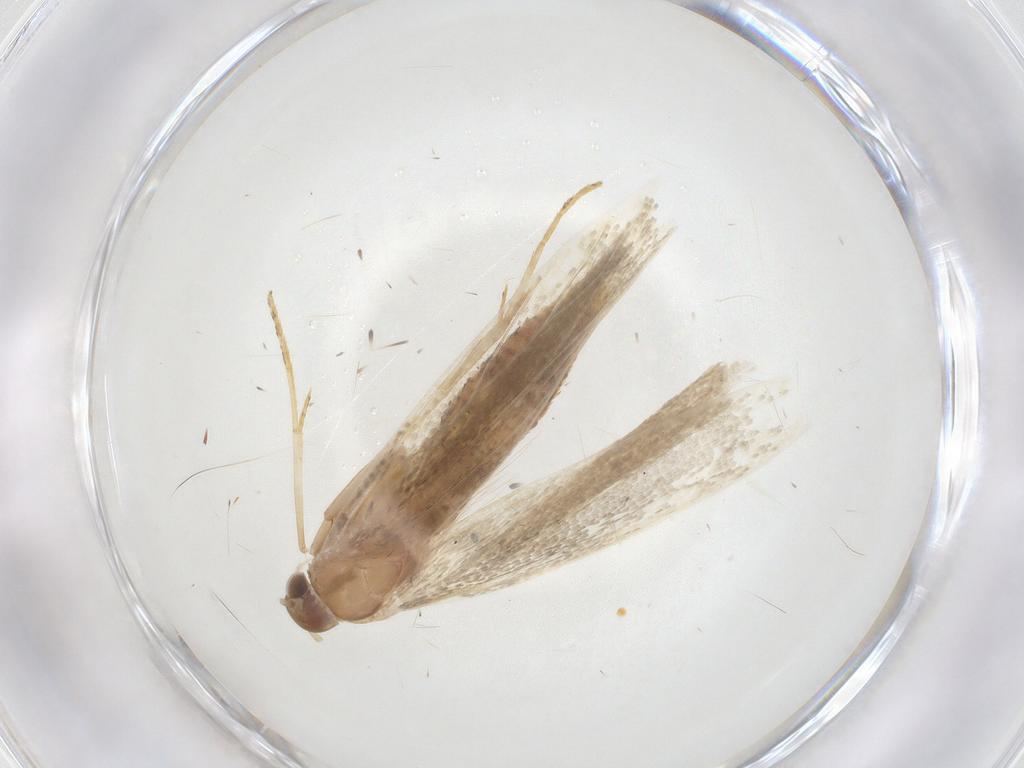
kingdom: Animalia
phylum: Arthropoda
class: Insecta
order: Lepidoptera
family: Crambidae
